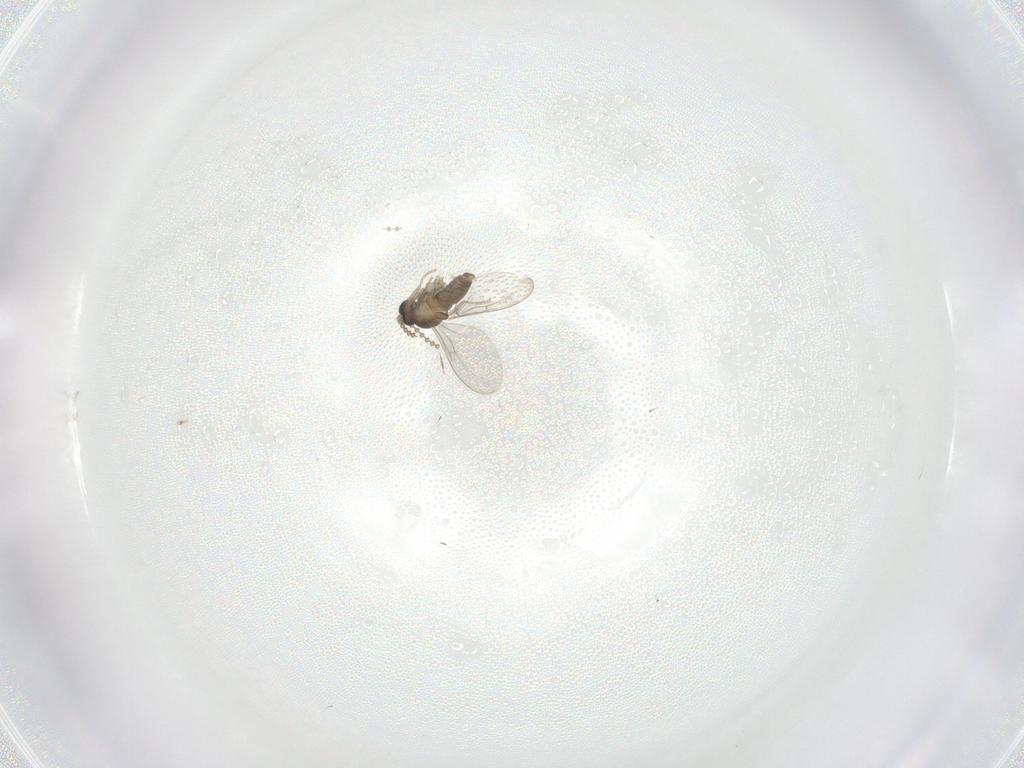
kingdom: Animalia
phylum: Arthropoda
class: Insecta
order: Diptera
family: Cecidomyiidae
